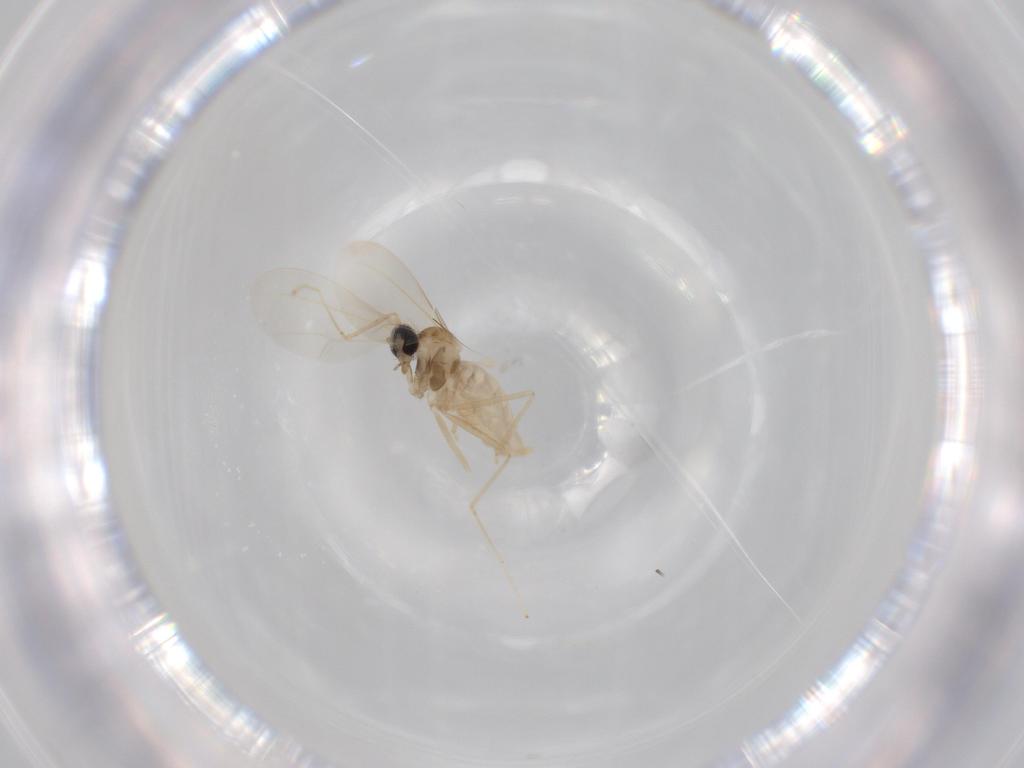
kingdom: Animalia
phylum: Arthropoda
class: Insecta
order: Diptera
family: Cecidomyiidae
